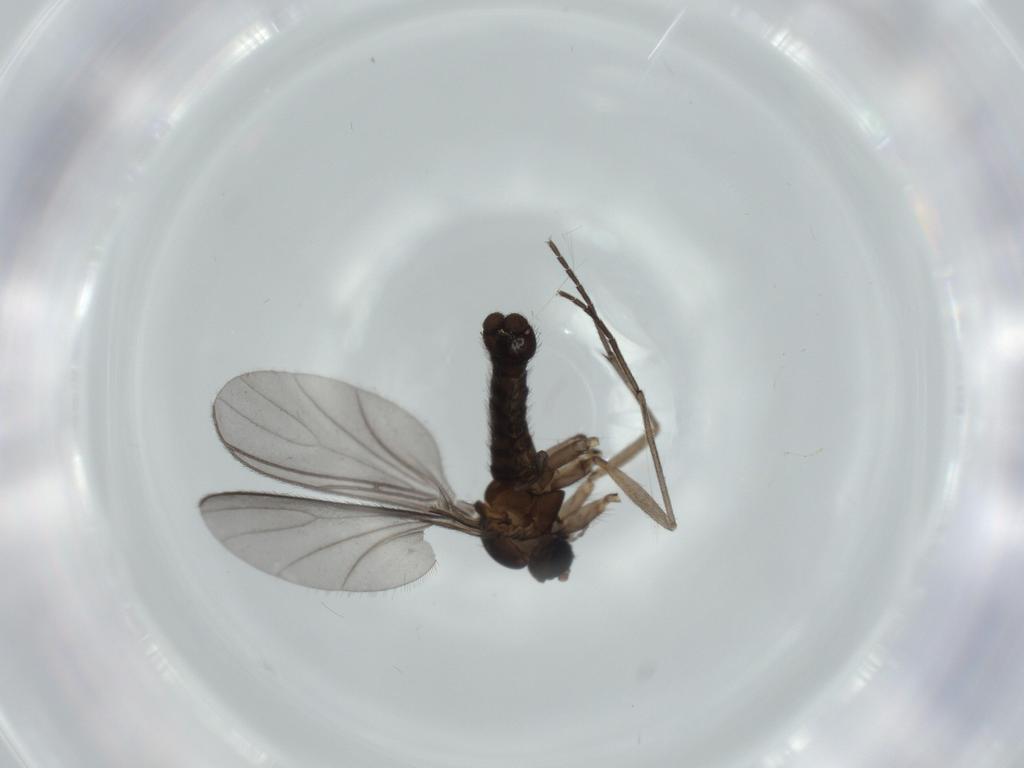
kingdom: Animalia
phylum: Arthropoda
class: Insecta
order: Diptera
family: Sciaridae
